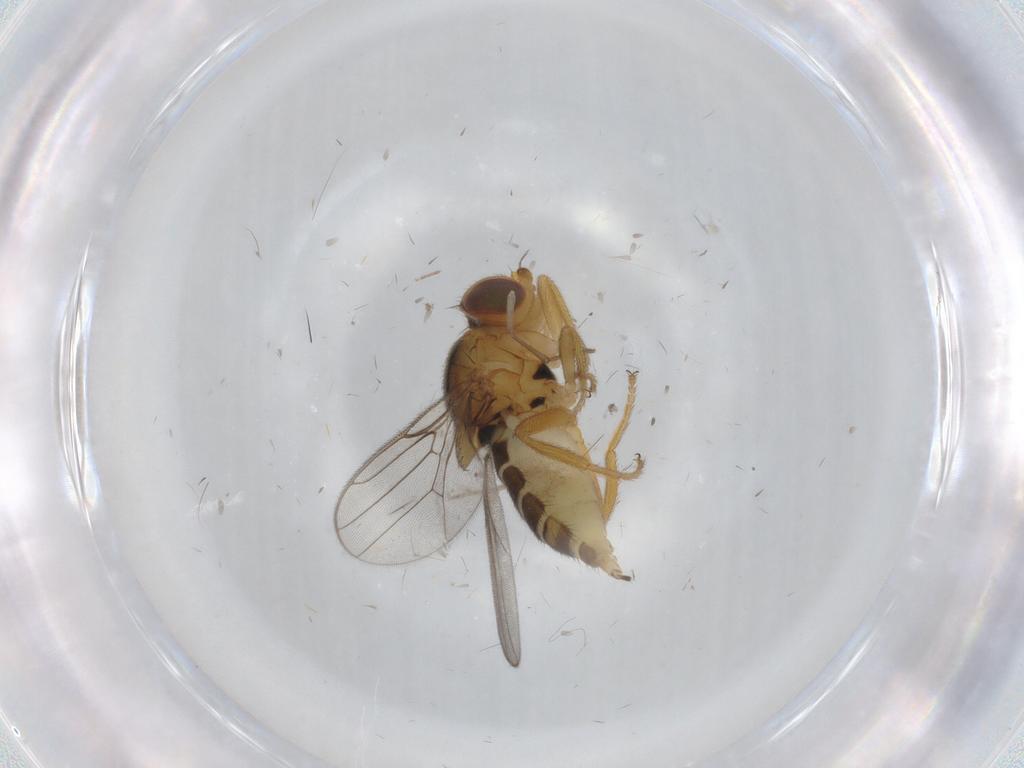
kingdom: Animalia
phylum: Arthropoda
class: Insecta
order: Diptera
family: Chloropidae
